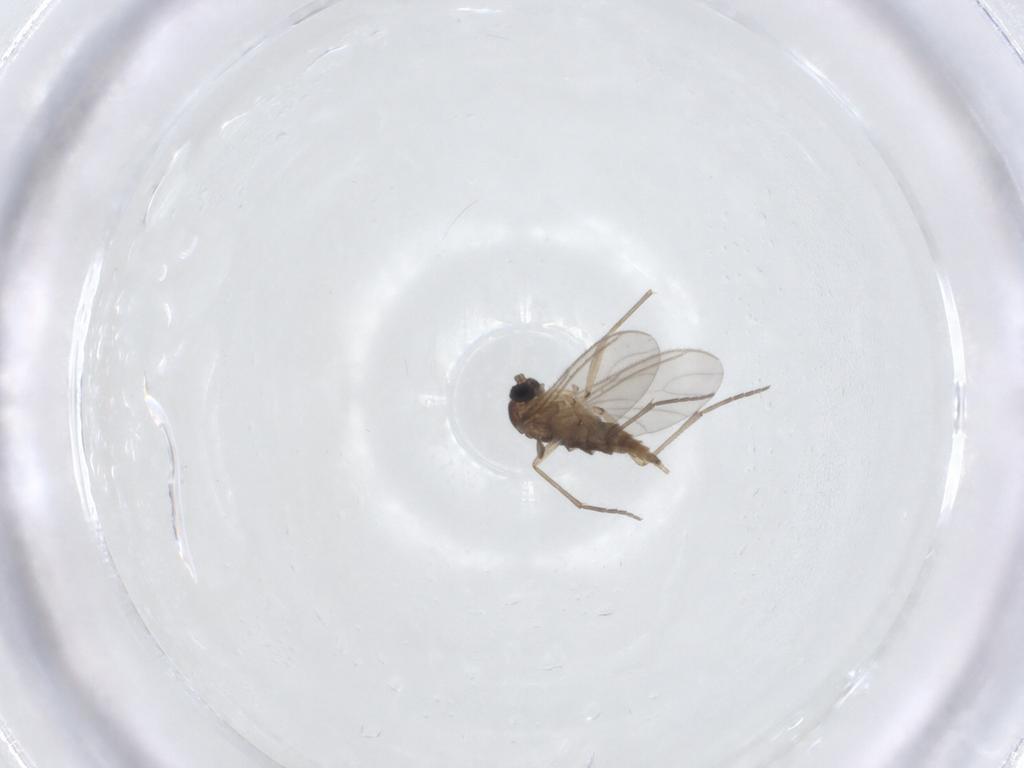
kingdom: Animalia
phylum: Arthropoda
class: Insecta
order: Diptera
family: Sciaridae
